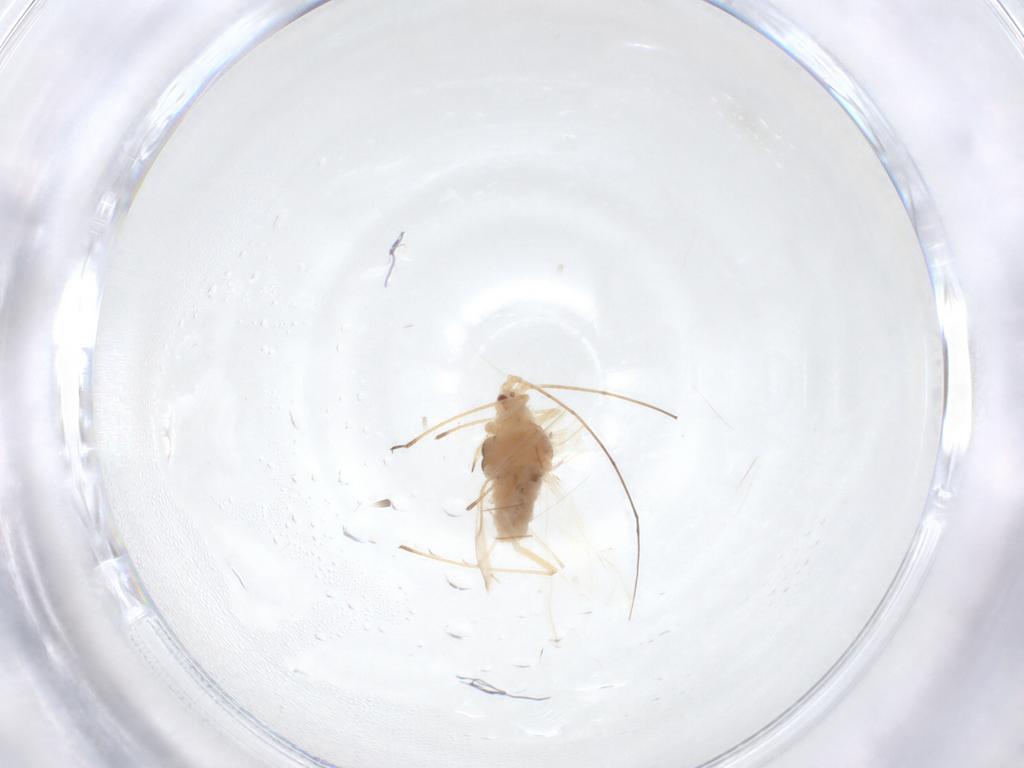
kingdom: Animalia
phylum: Arthropoda
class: Insecta
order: Hemiptera
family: Aphididae
